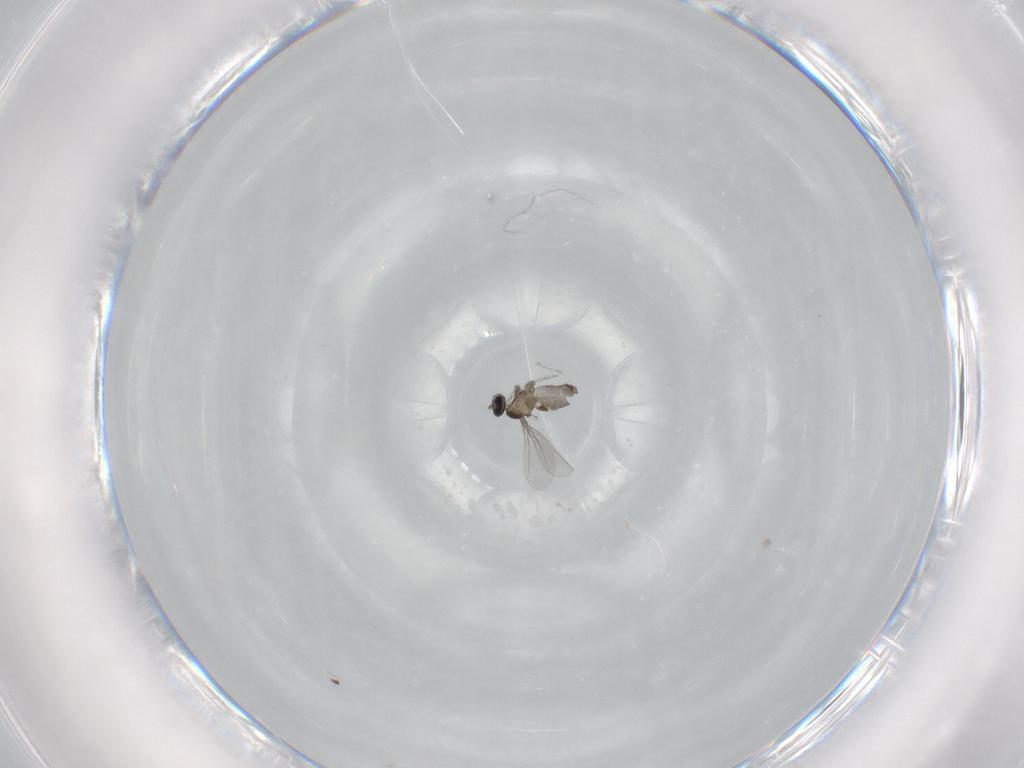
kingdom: Animalia
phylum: Arthropoda
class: Insecta
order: Diptera
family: Cecidomyiidae
